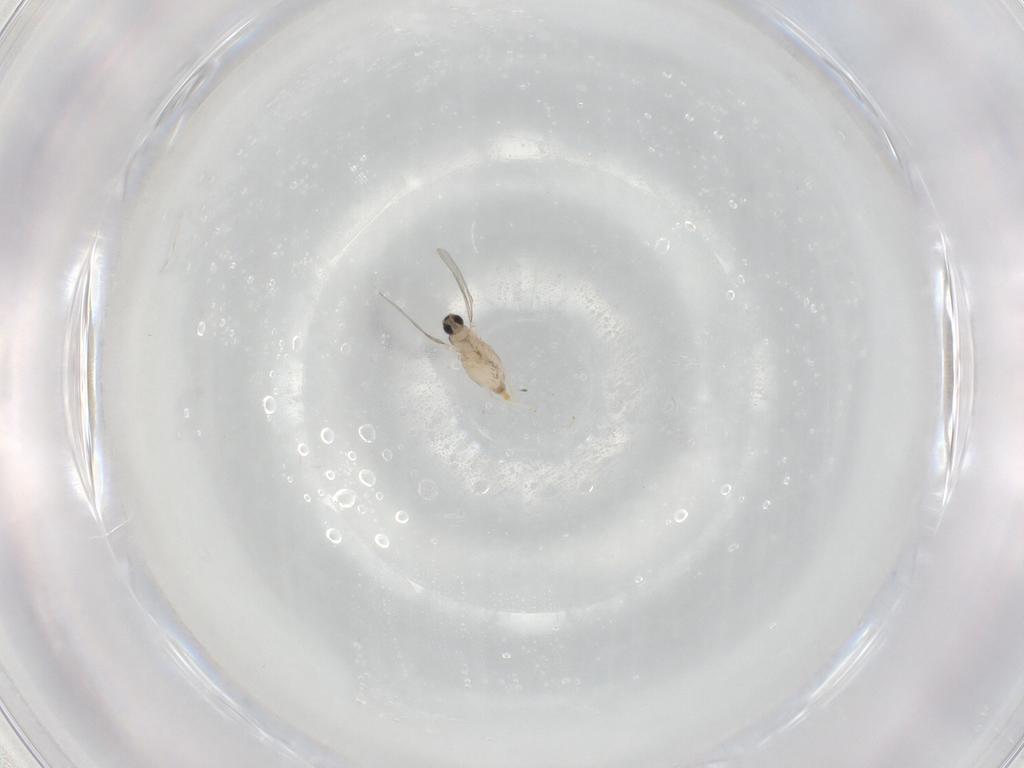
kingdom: Animalia
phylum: Arthropoda
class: Insecta
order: Diptera
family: Cecidomyiidae
